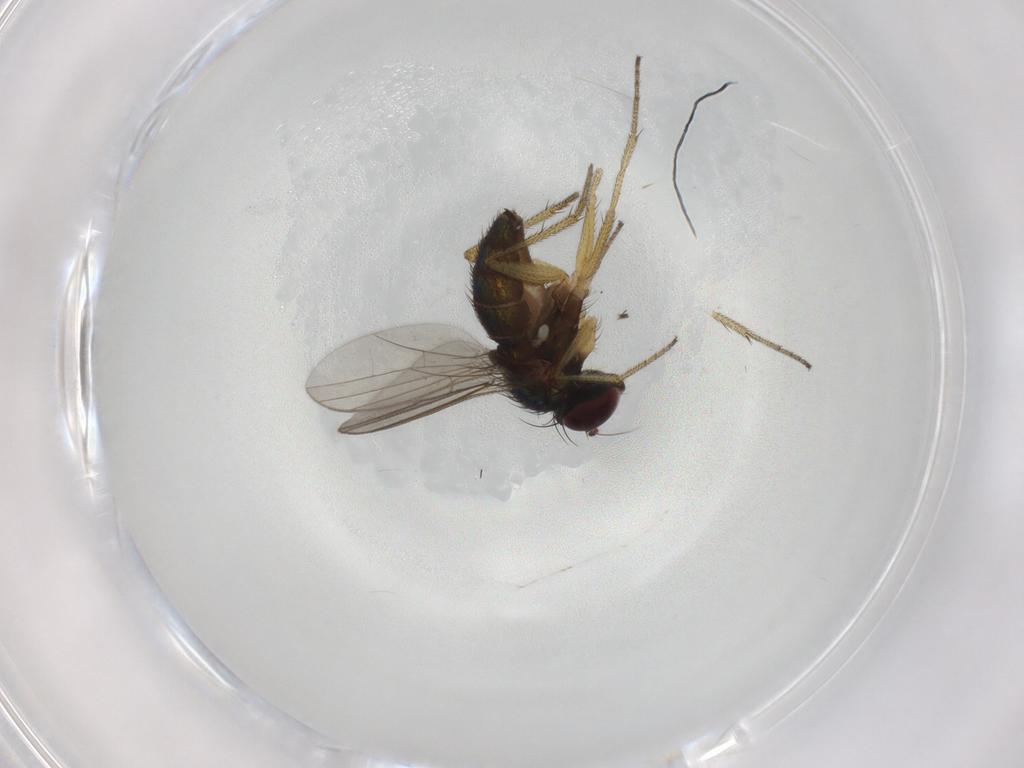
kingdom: Animalia
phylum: Arthropoda
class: Insecta
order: Diptera
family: Dolichopodidae
